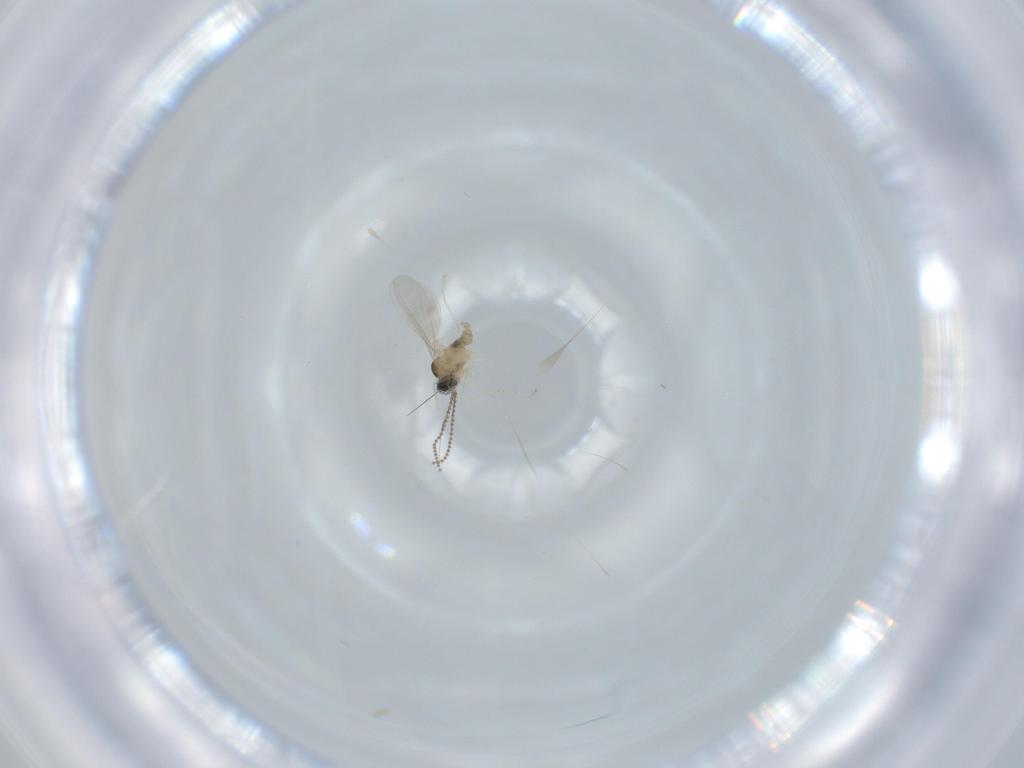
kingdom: Animalia
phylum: Arthropoda
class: Insecta
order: Diptera
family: Cecidomyiidae
